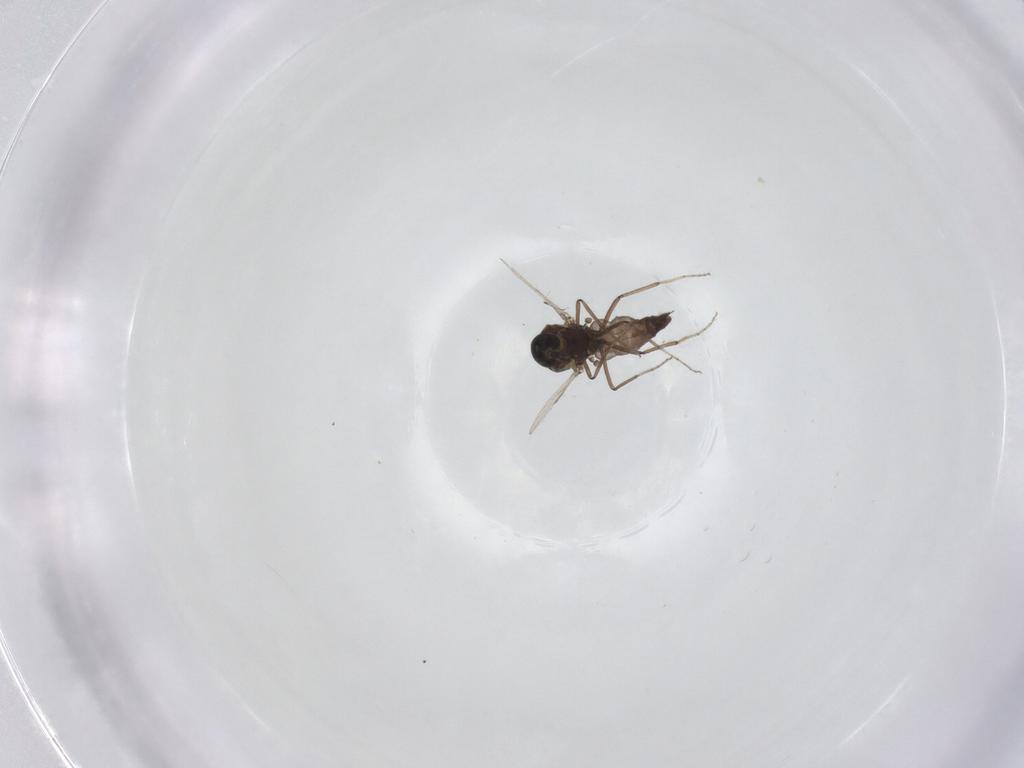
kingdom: Animalia
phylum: Arthropoda
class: Insecta
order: Diptera
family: Ceratopogonidae
